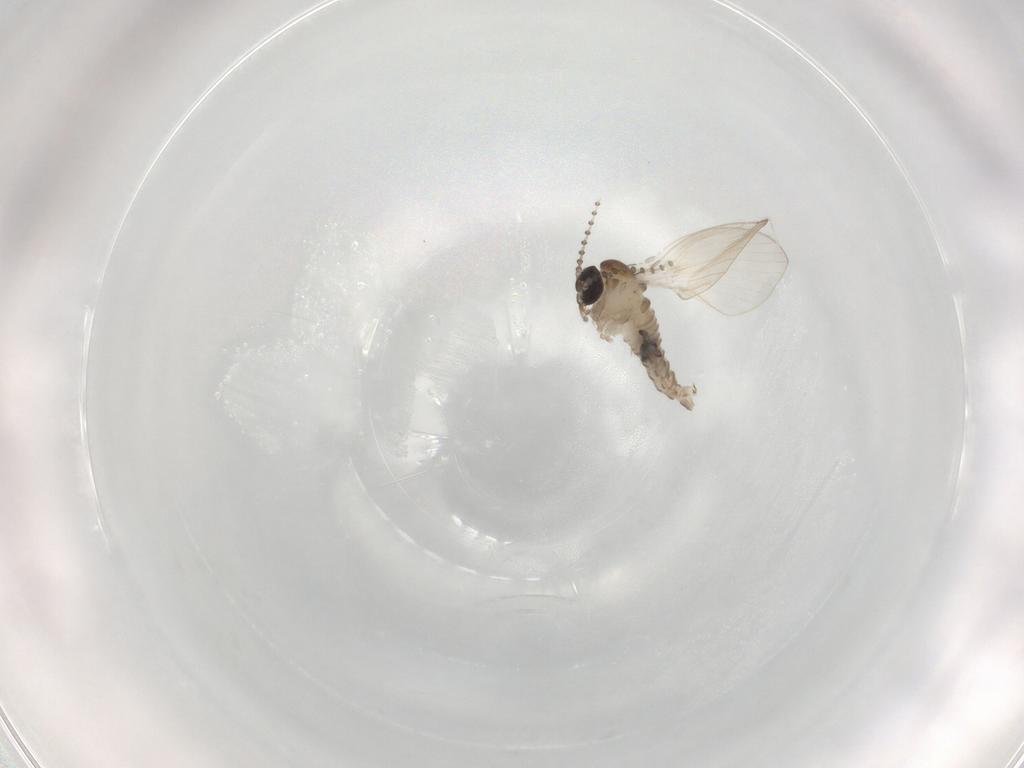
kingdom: Animalia
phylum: Arthropoda
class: Insecta
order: Diptera
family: Psychodidae
